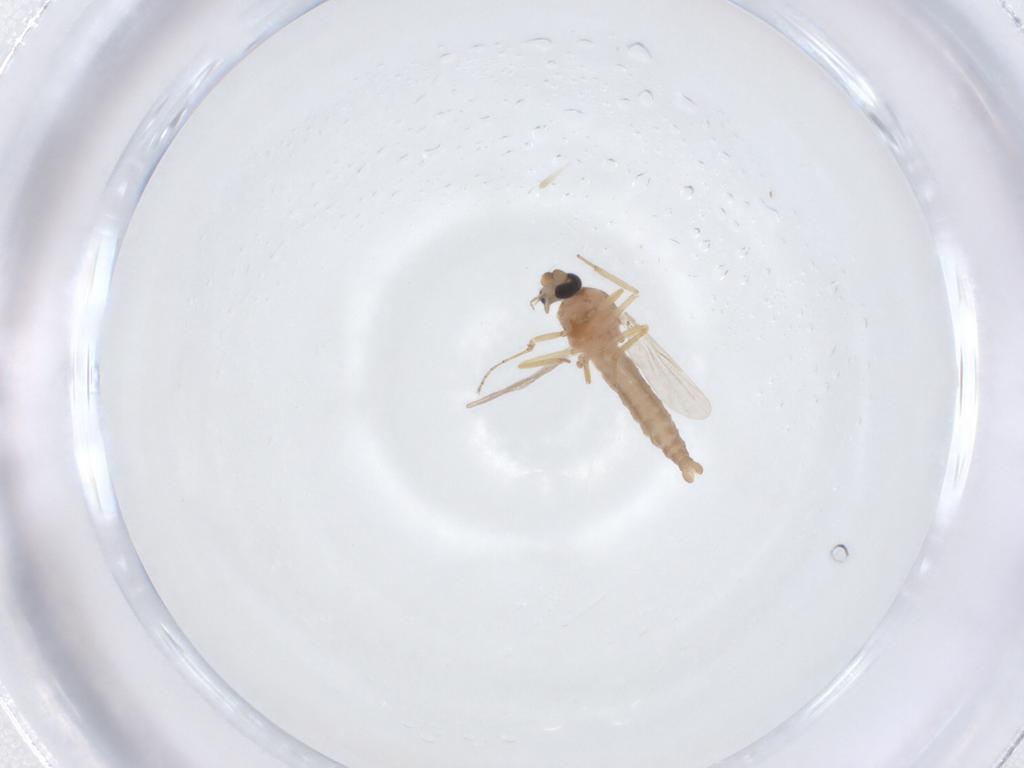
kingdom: Animalia
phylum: Arthropoda
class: Insecta
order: Diptera
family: Ceratopogonidae
